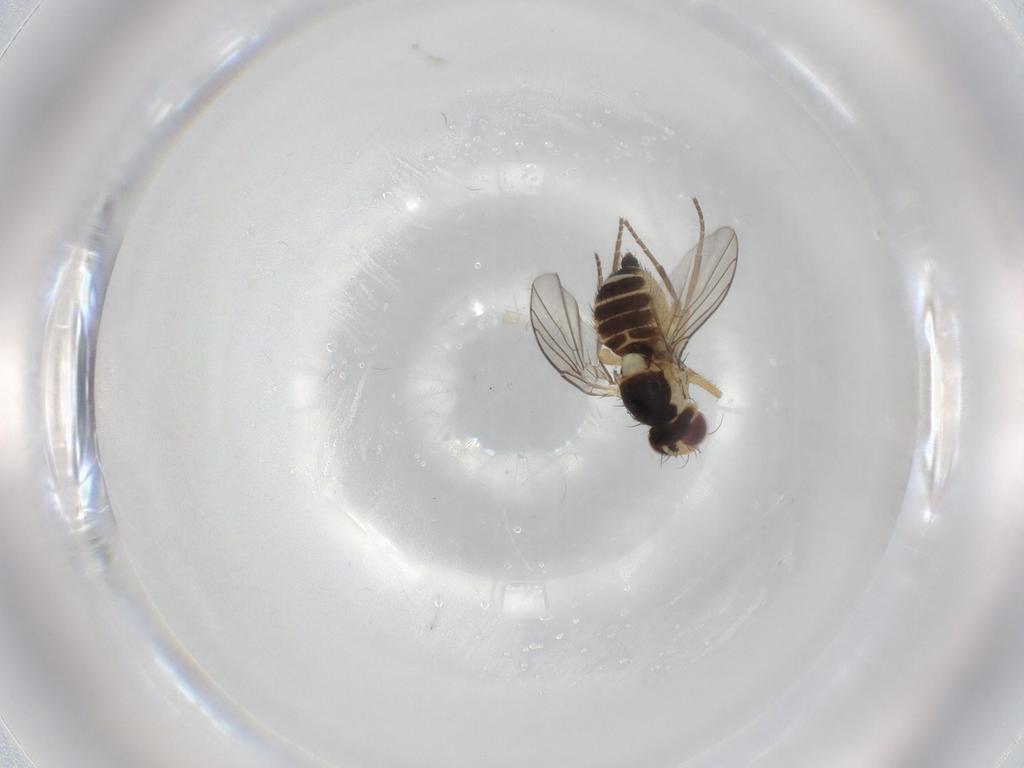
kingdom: Animalia
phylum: Arthropoda
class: Insecta
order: Diptera
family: Agromyzidae
